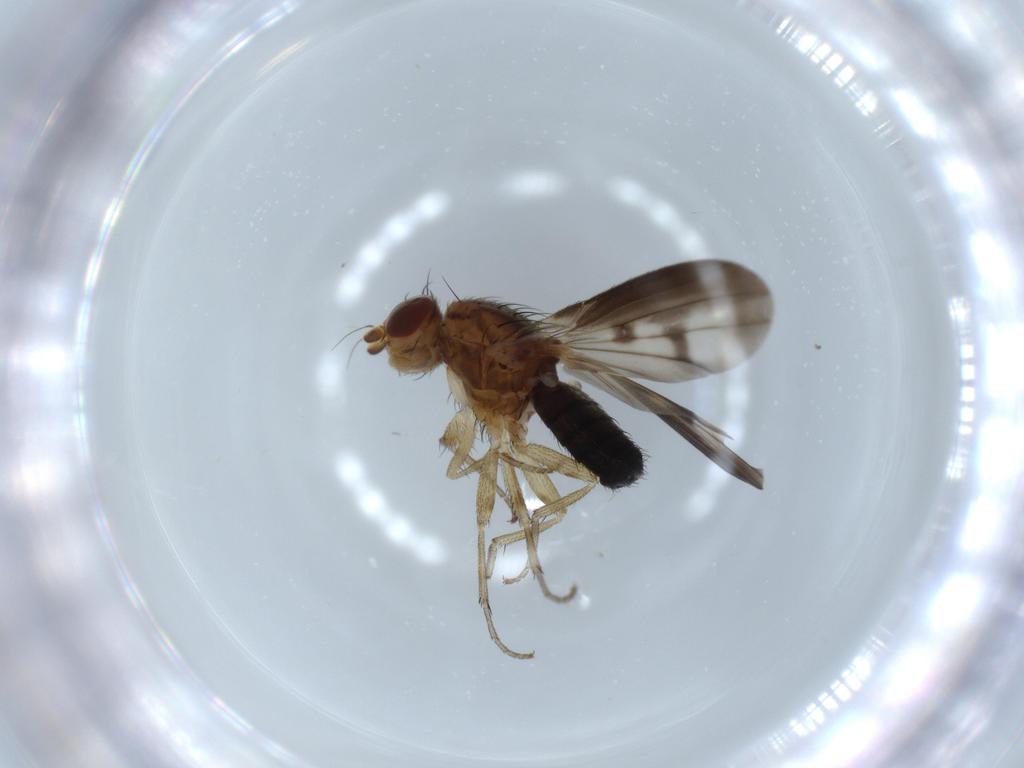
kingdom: Animalia
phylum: Arthropoda
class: Insecta
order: Diptera
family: Heleomyzidae
